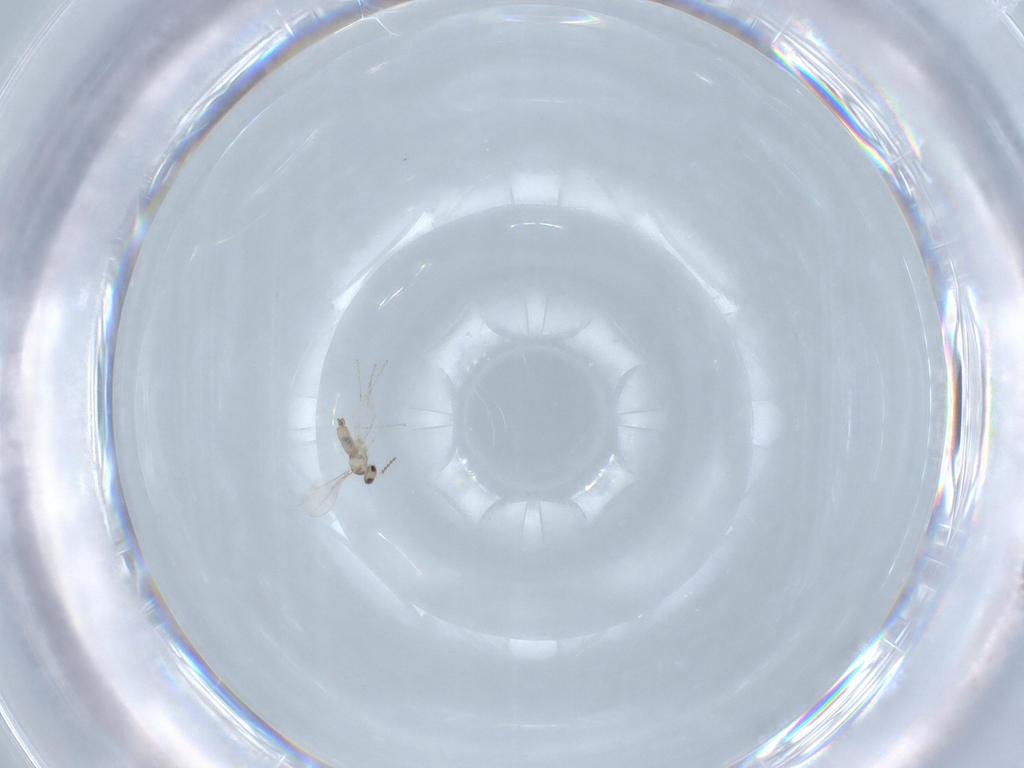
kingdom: Animalia
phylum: Arthropoda
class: Insecta
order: Diptera
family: Cecidomyiidae
